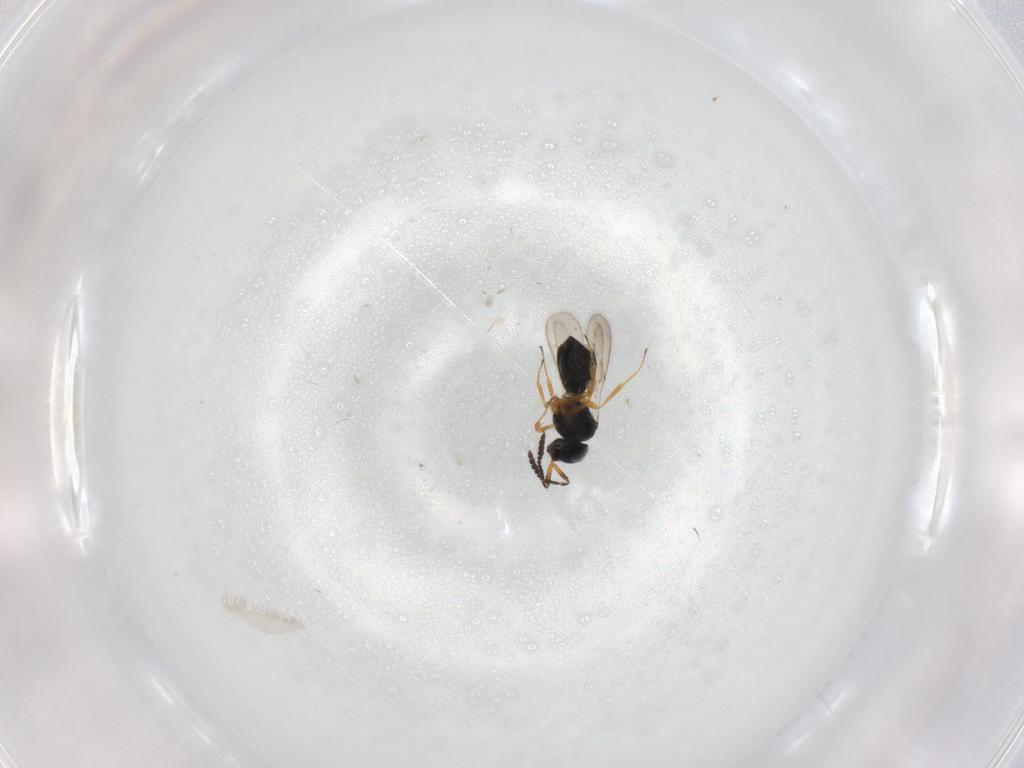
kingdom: Animalia
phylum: Arthropoda
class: Insecta
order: Hymenoptera
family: Scelionidae
